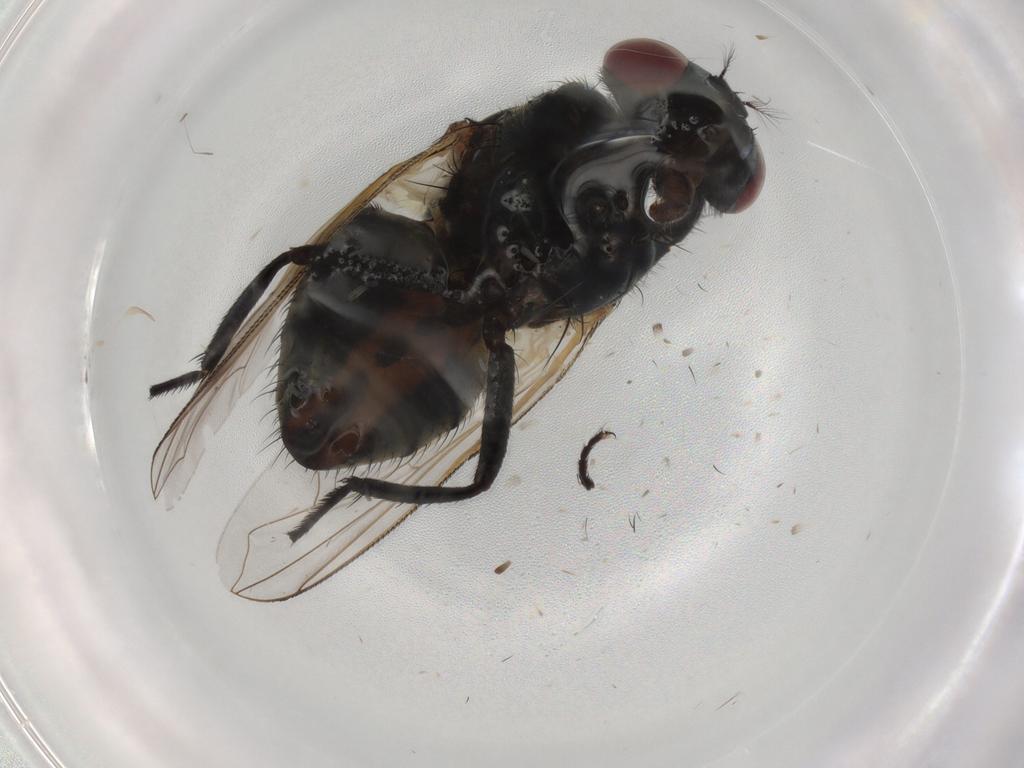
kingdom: Animalia
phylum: Arthropoda
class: Insecta
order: Diptera
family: Muscidae
